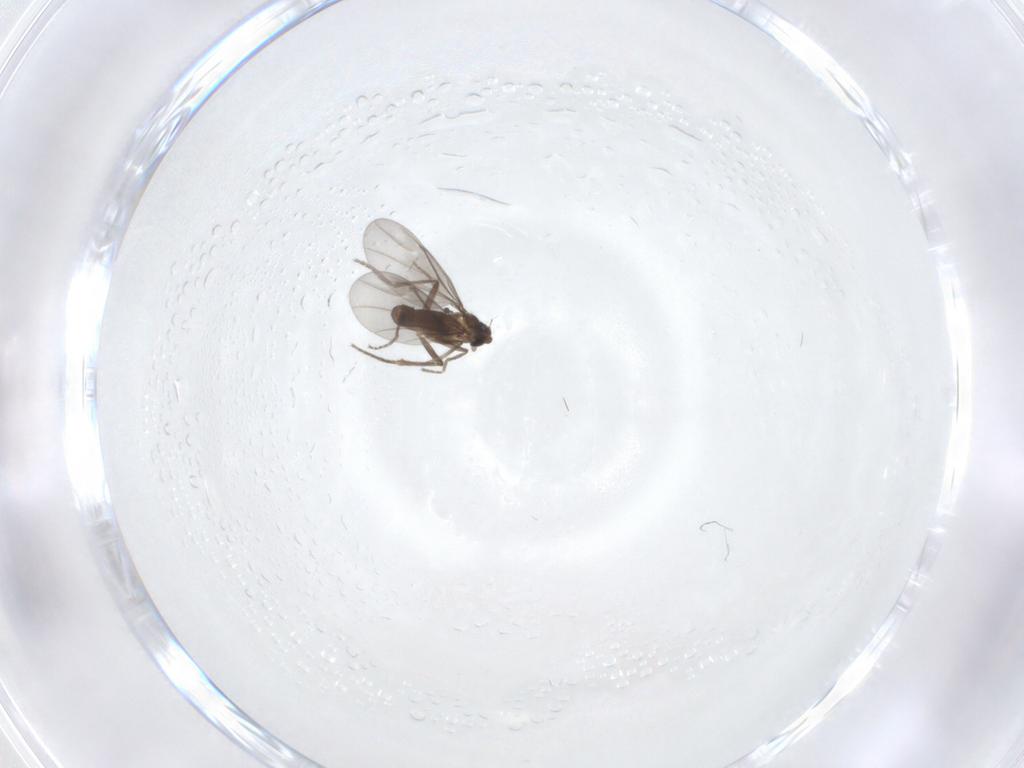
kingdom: Animalia
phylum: Arthropoda
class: Insecta
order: Diptera
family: Phoridae
